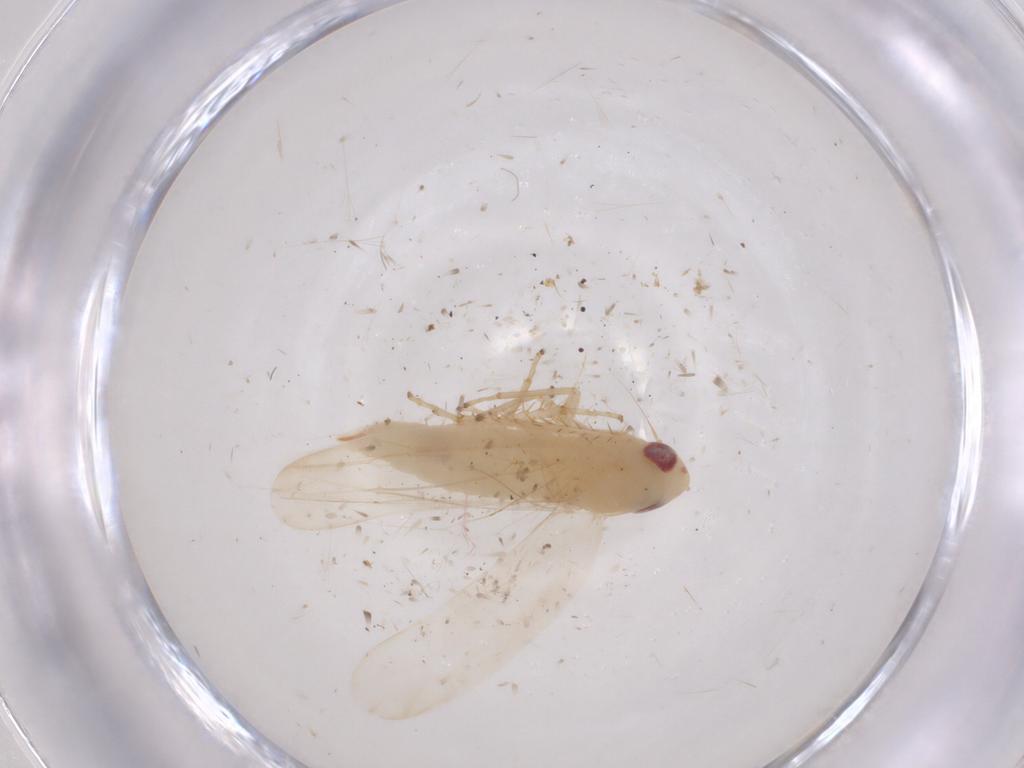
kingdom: Animalia
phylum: Arthropoda
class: Insecta
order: Hemiptera
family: Cicadellidae
